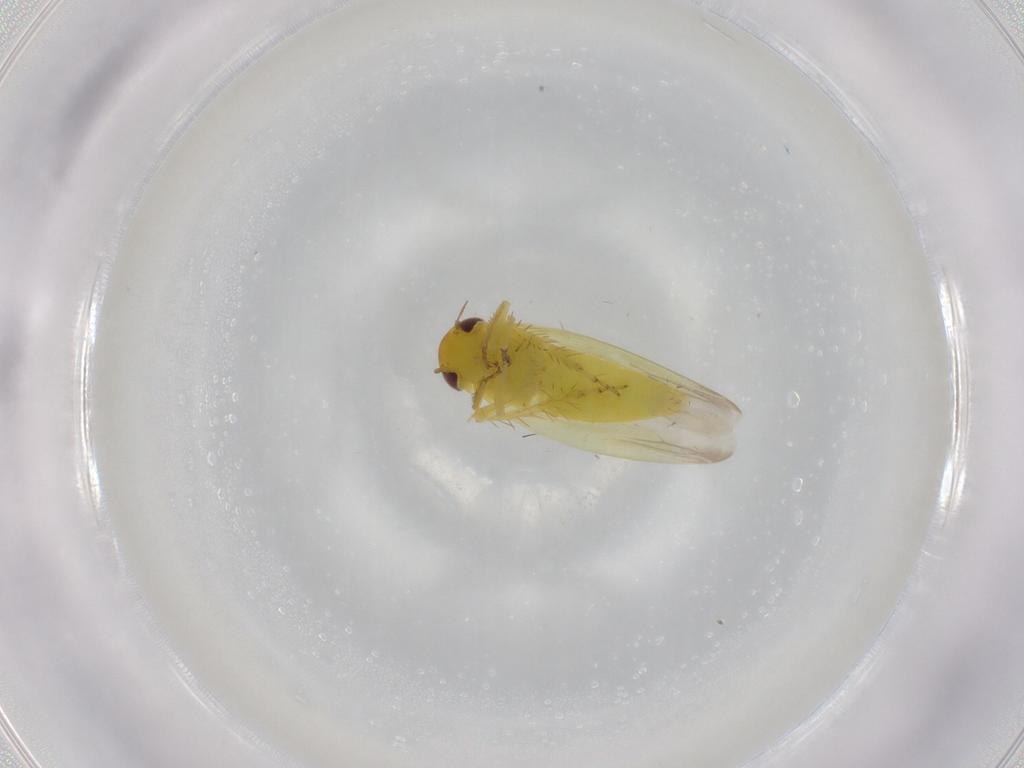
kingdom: Animalia
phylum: Arthropoda
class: Insecta
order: Hemiptera
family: Cicadellidae
